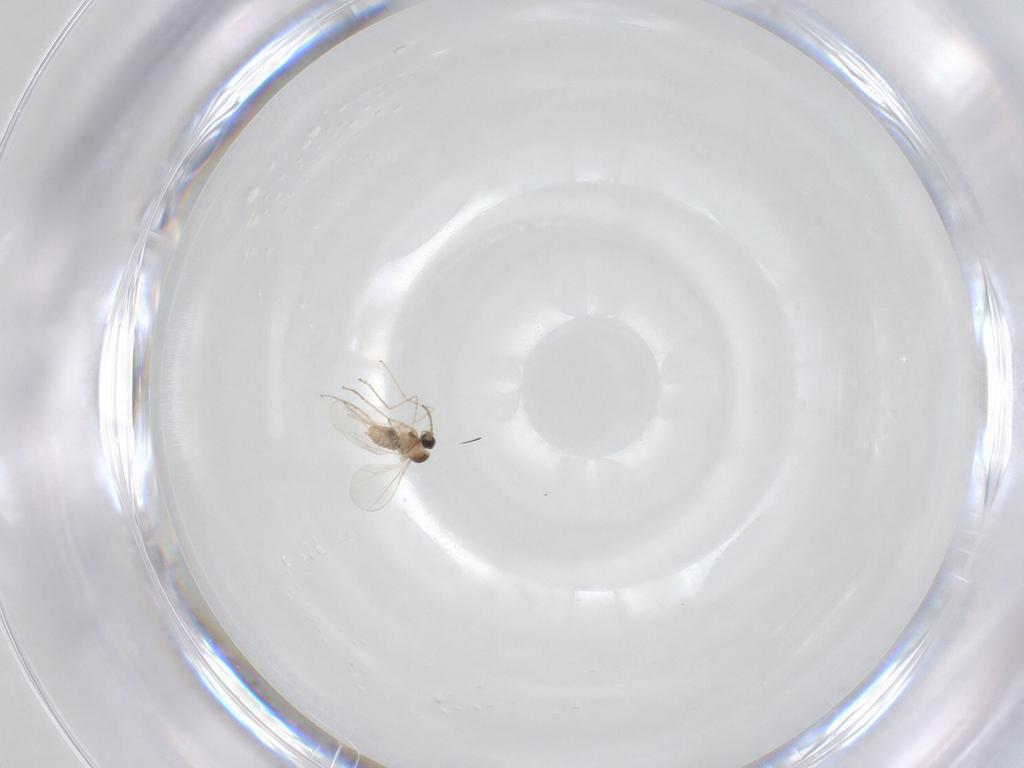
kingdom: Animalia
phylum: Arthropoda
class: Insecta
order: Diptera
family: Cecidomyiidae
